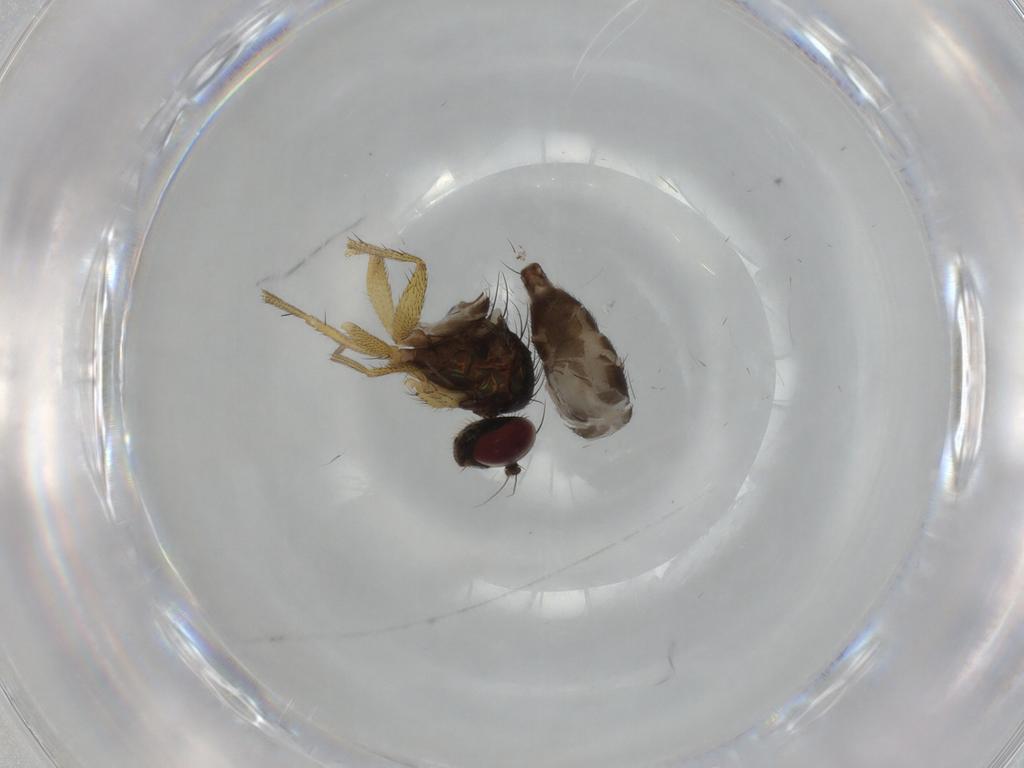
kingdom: Animalia
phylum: Arthropoda
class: Insecta
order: Diptera
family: Dolichopodidae
